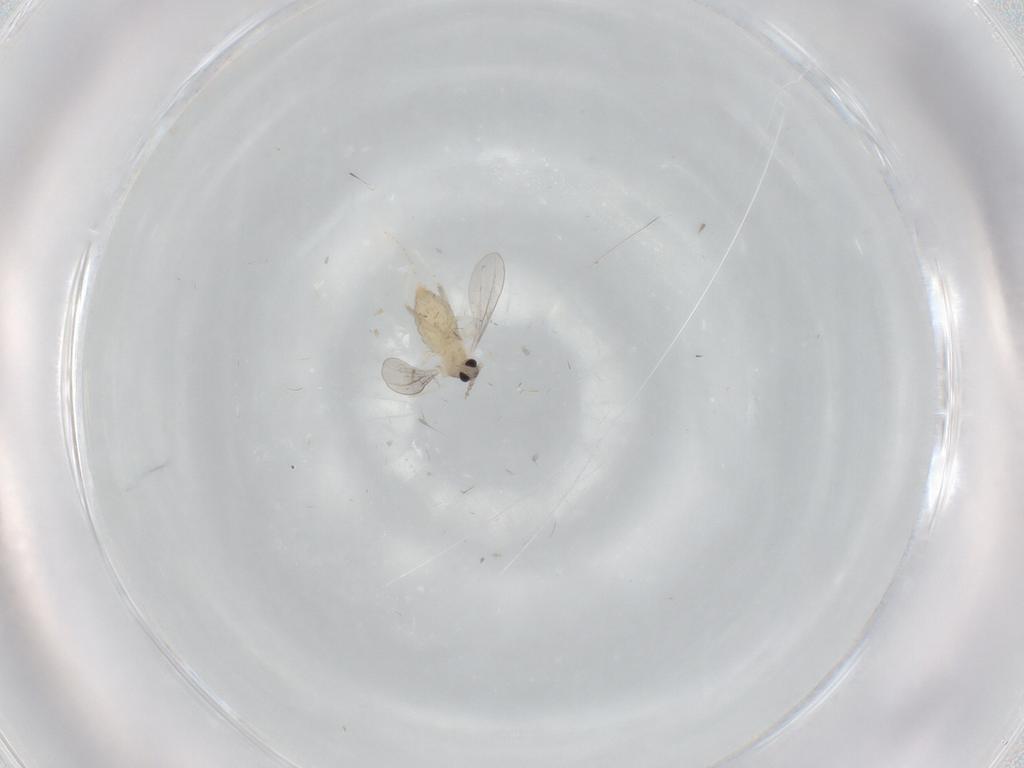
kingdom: Animalia
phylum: Arthropoda
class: Insecta
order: Diptera
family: Cecidomyiidae
